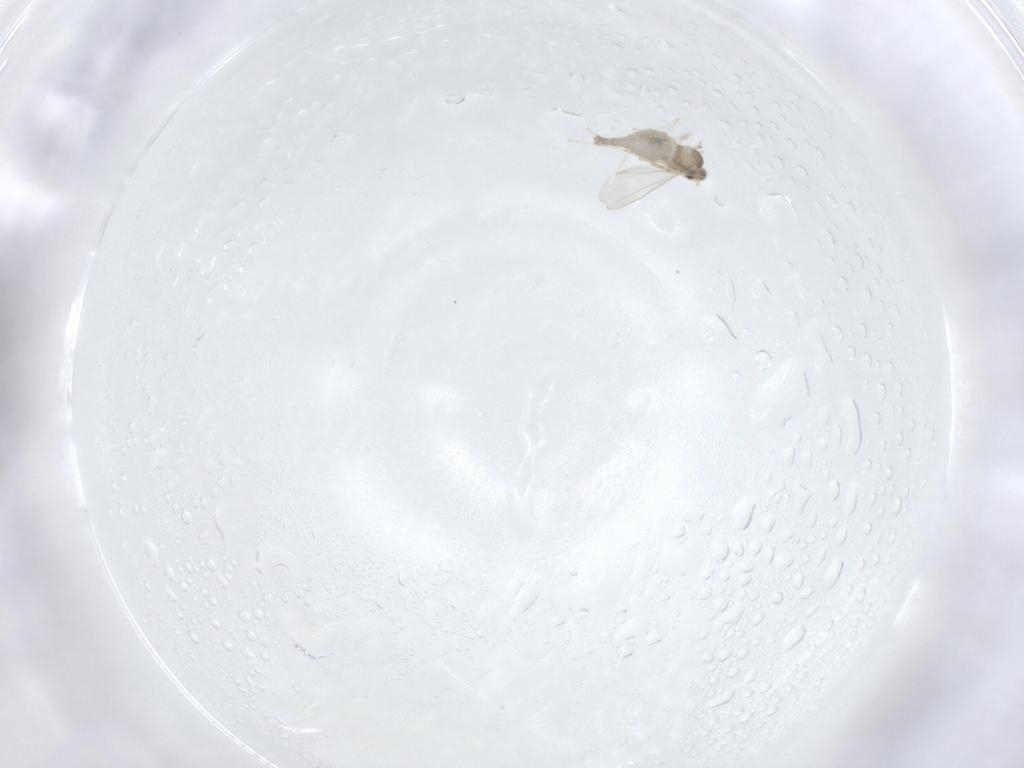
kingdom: Animalia
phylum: Arthropoda
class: Insecta
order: Diptera
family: Cecidomyiidae
